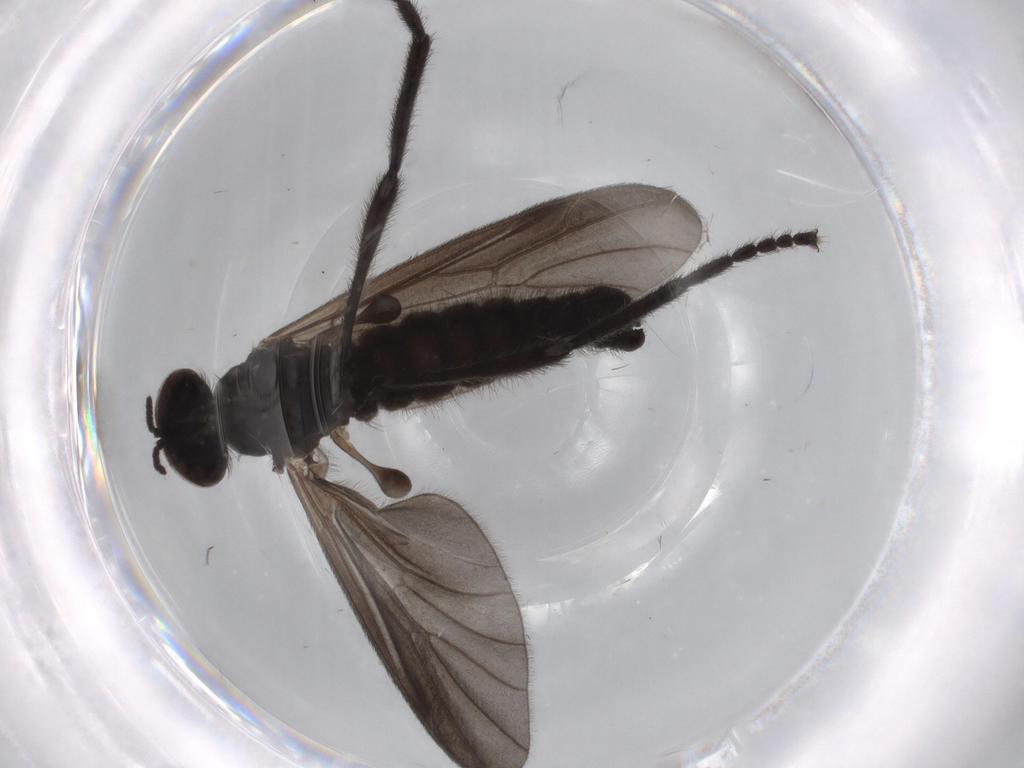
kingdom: Animalia
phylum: Arthropoda
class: Insecta
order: Diptera
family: Chironomidae
